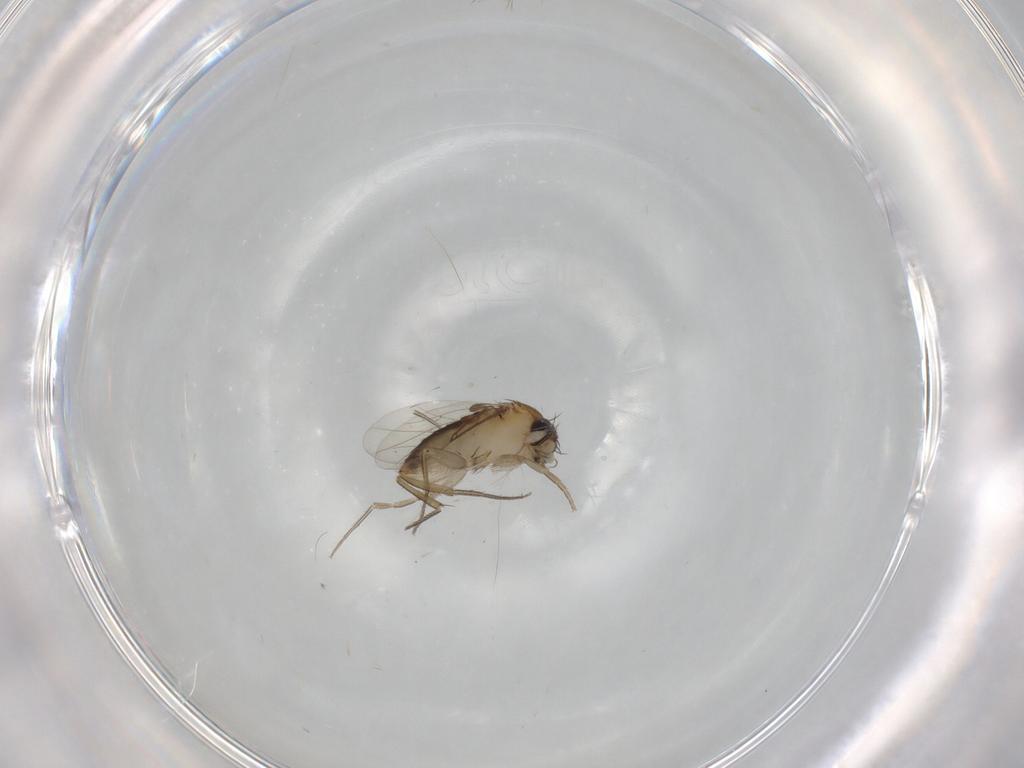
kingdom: Animalia
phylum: Arthropoda
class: Insecta
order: Diptera
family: Phoridae
